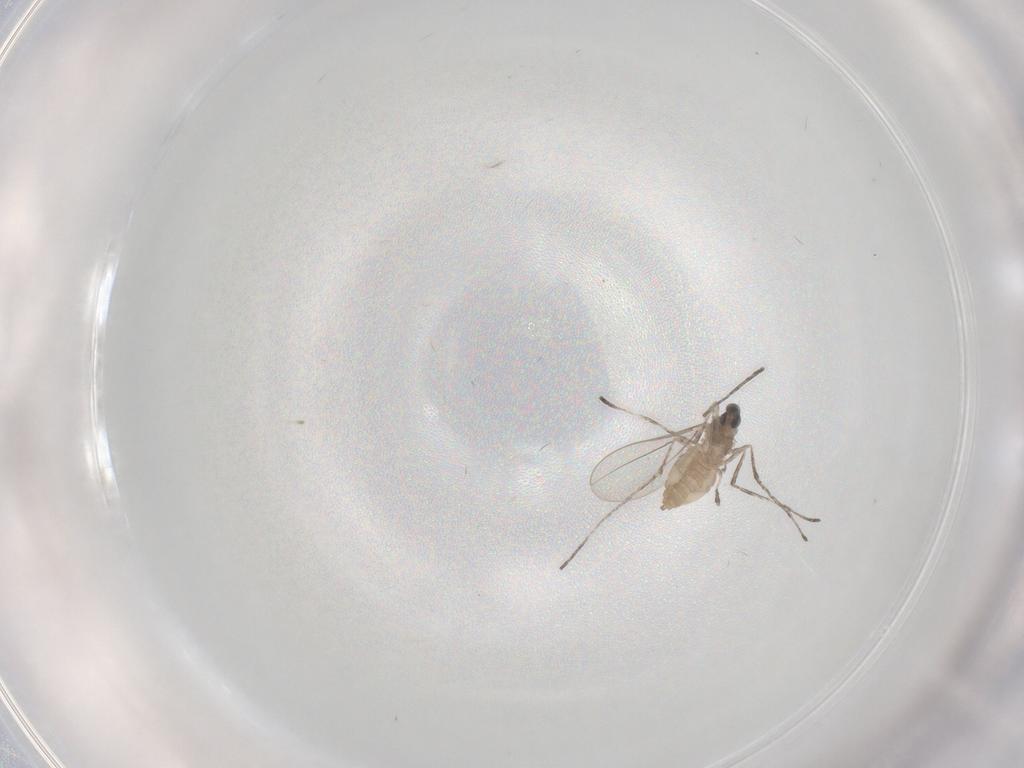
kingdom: Animalia
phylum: Arthropoda
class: Insecta
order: Diptera
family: Cecidomyiidae
